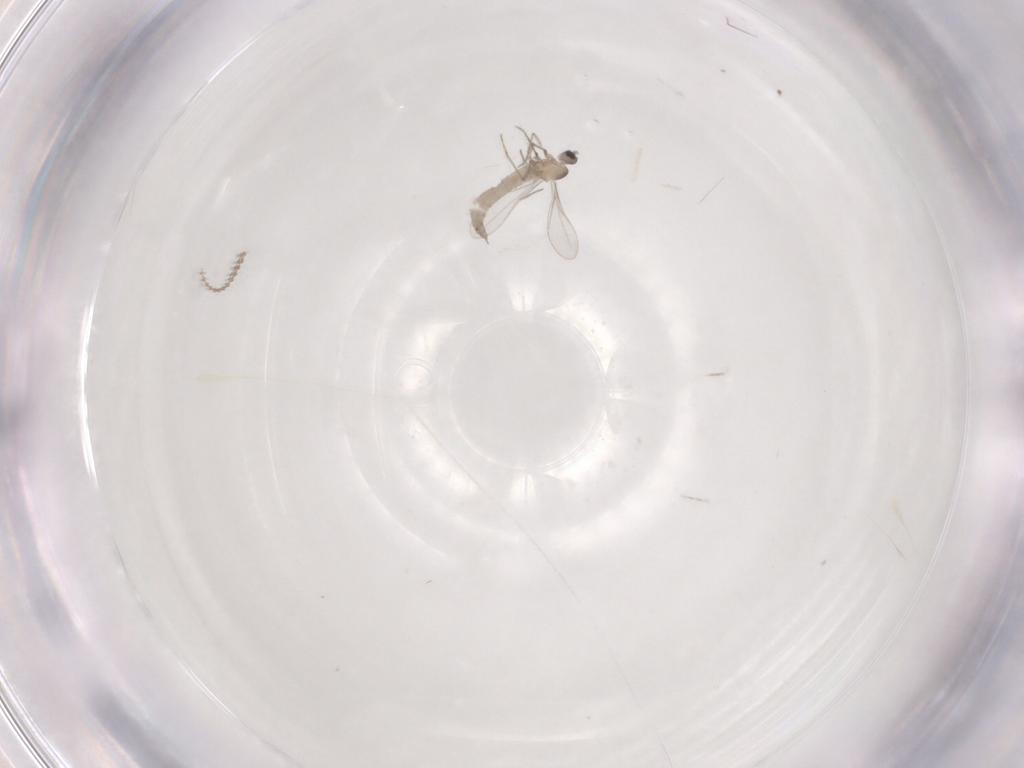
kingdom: Animalia
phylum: Arthropoda
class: Insecta
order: Diptera
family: Cecidomyiidae
